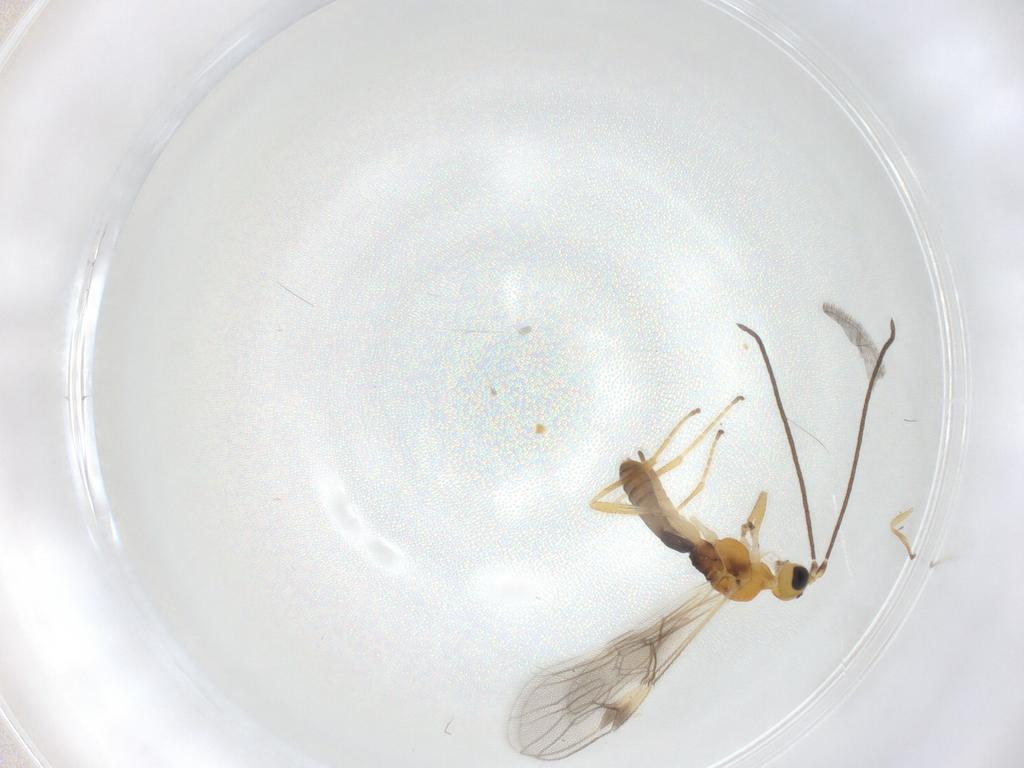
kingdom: Animalia
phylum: Arthropoda
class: Insecta
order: Hymenoptera
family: Braconidae
